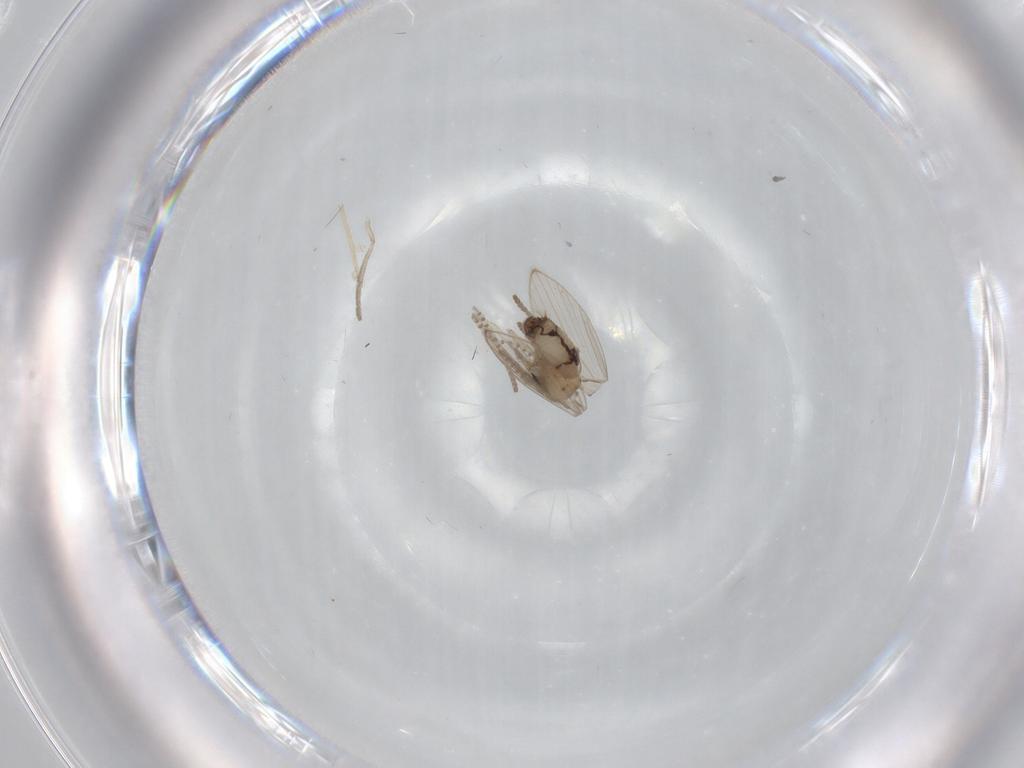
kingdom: Animalia
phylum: Arthropoda
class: Insecta
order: Diptera
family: Psychodidae
